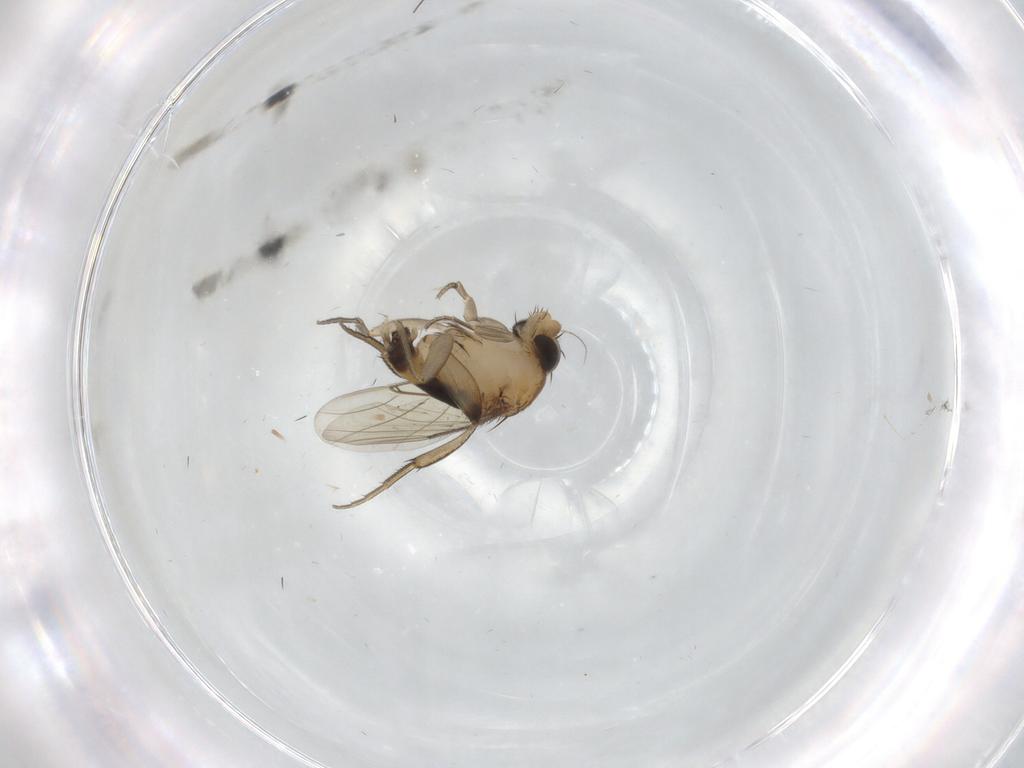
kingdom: Animalia
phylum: Arthropoda
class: Insecta
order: Diptera
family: Phoridae
